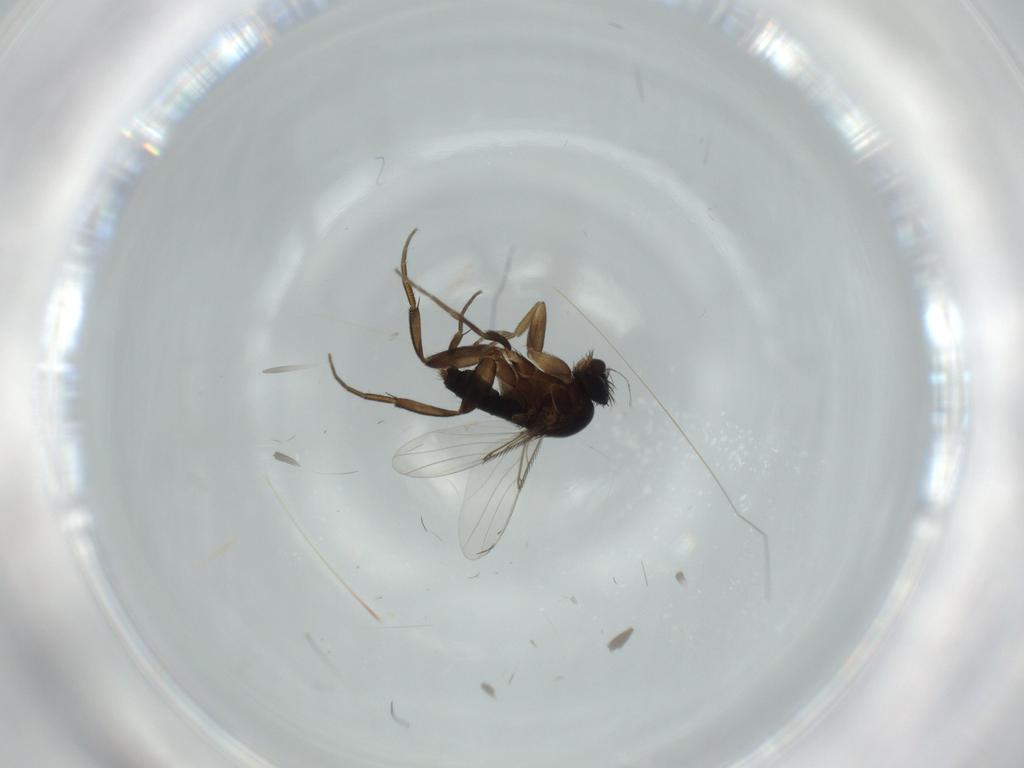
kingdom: Animalia
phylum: Arthropoda
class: Insecta
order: Diptera
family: Phoridae
